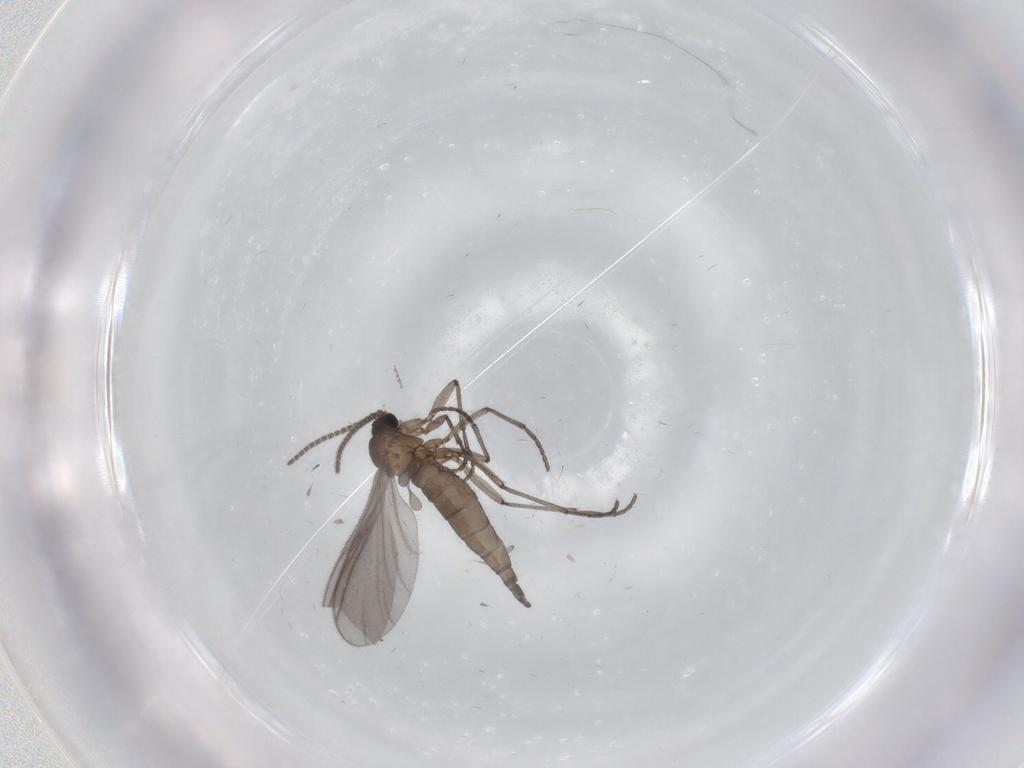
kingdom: Animalia
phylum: Arthropoda
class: Insecta
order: Diptera
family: Sciaridae
